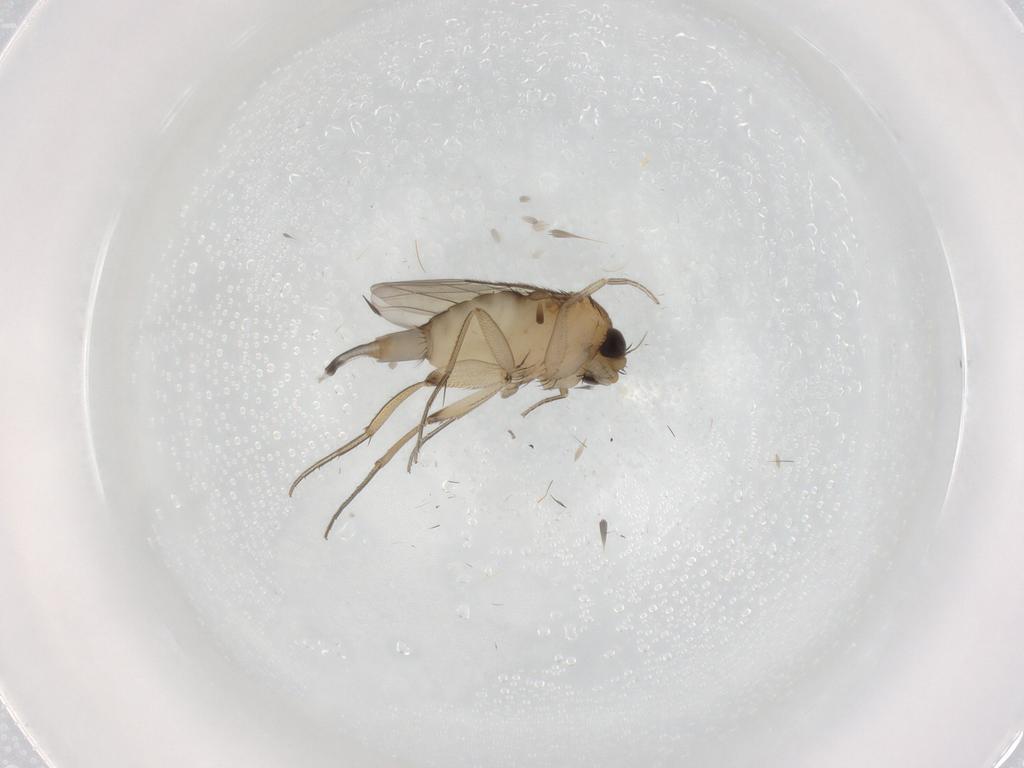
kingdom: Animalia
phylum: Arthropoda
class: Insecta
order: Diptera
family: Phoridae
